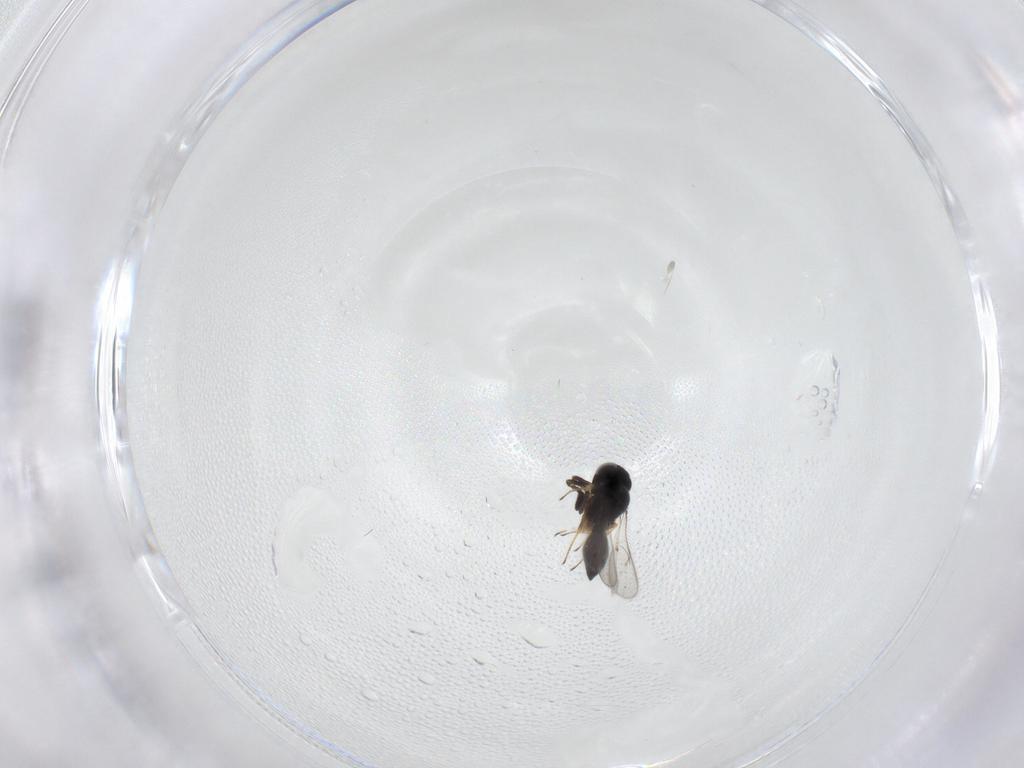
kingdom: Animalia
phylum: Arthropoda
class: Insecta
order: Hymenoptera
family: Scelionidae
